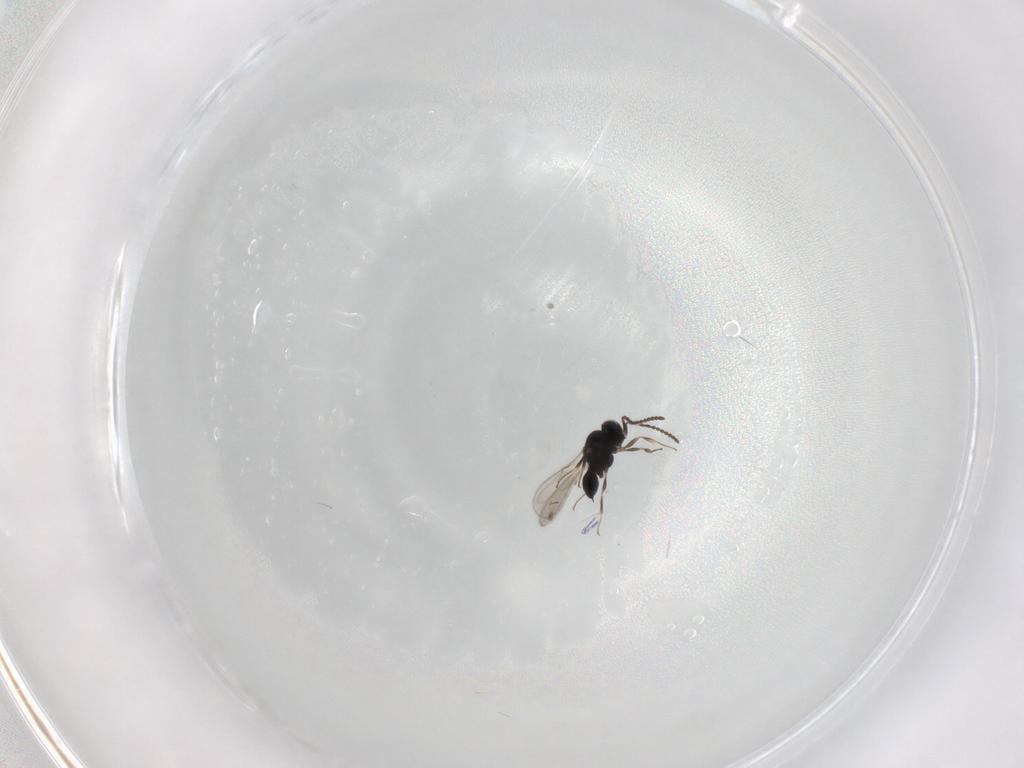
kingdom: Animalia
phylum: Arthropoda
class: Insecta
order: Hymenoptera
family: Scelionidae
